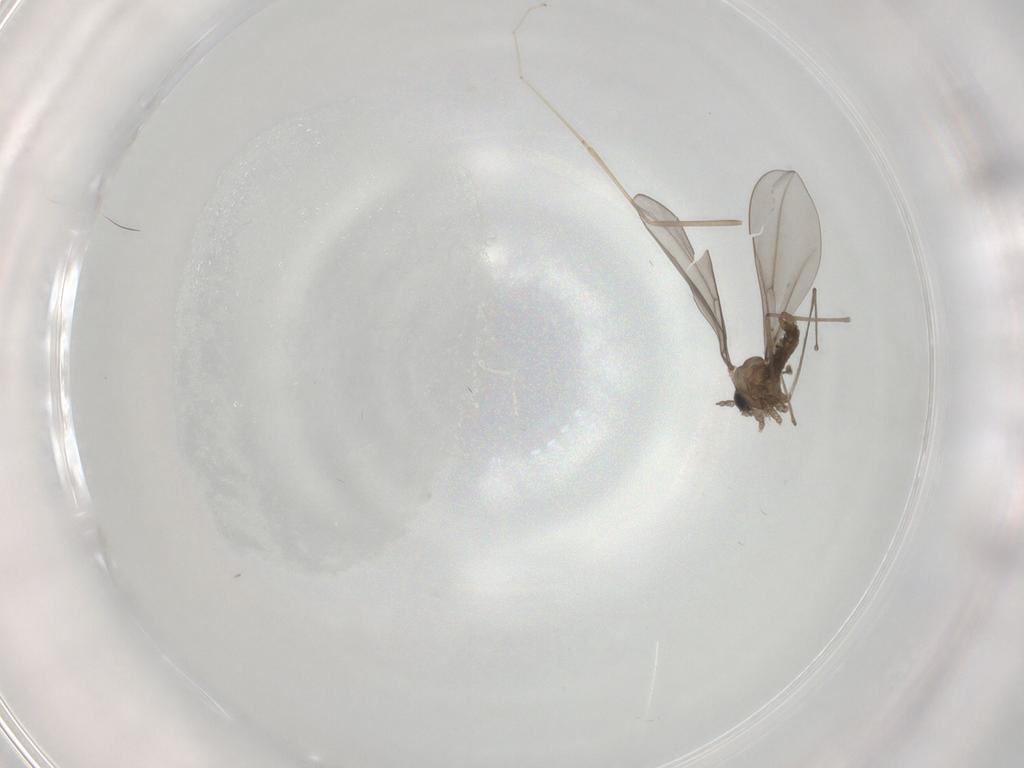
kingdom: Animalia
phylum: Arthropoda
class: Insecta
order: Diptera
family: Cecidomyiidae
